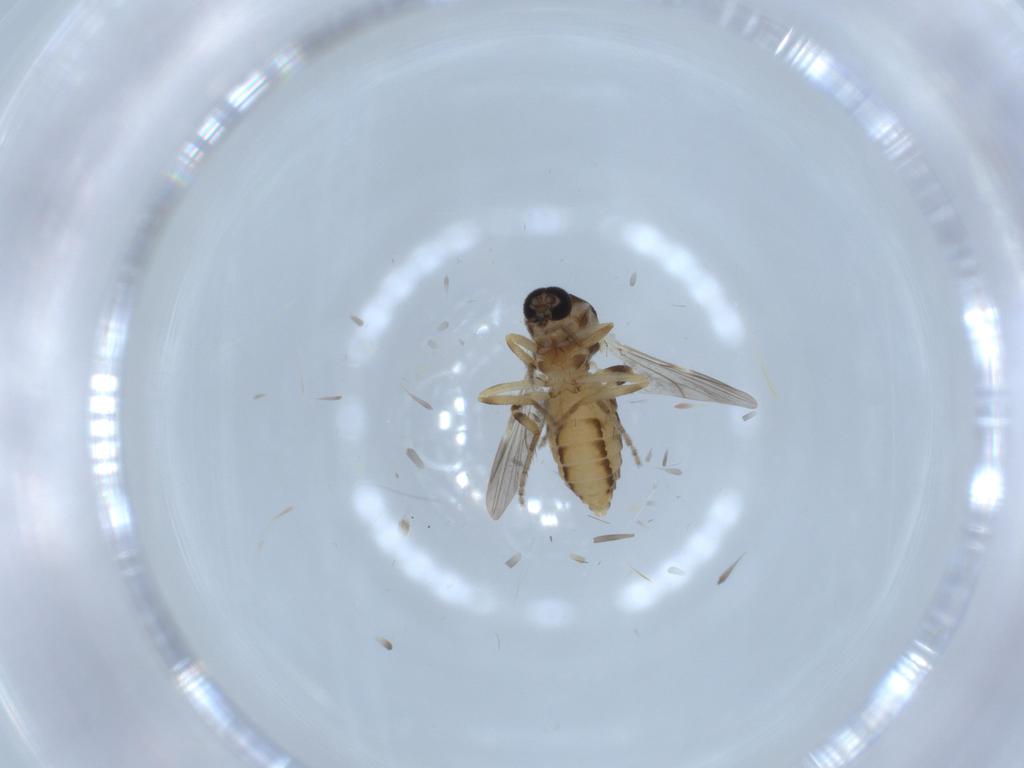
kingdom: Animalia
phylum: Arthropoda
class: Insecta
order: Diptera
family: Ceratopogonidae
